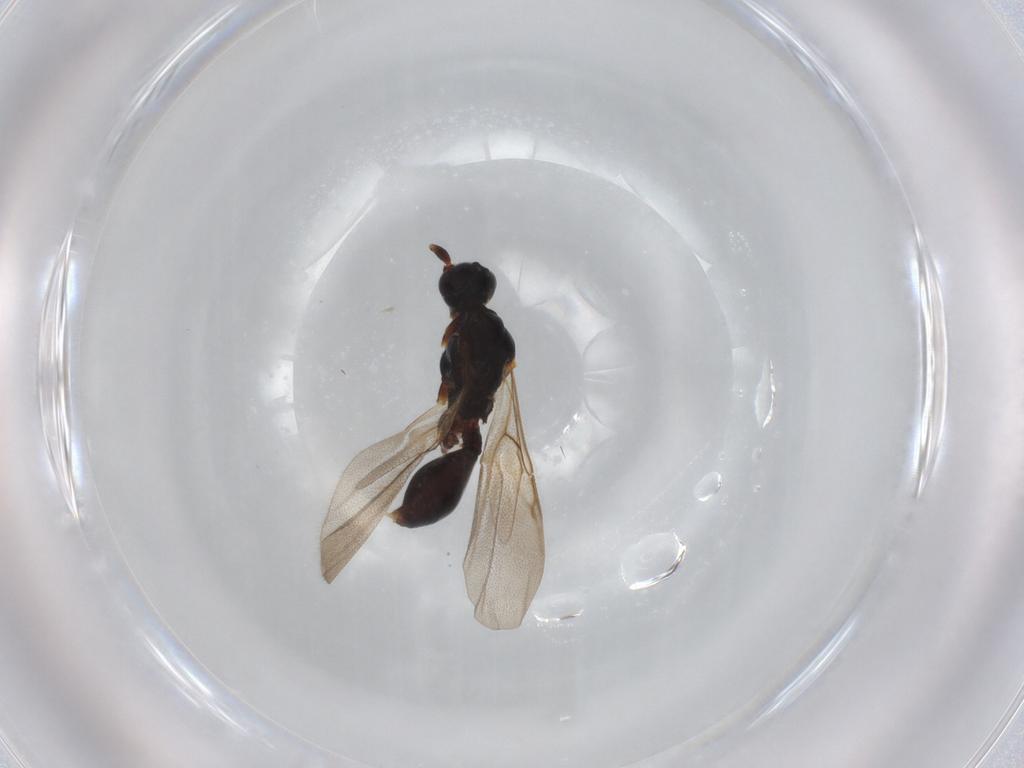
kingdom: Animalia
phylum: Arthropoda
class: Insecta
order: Hymenoptera
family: Apidae
